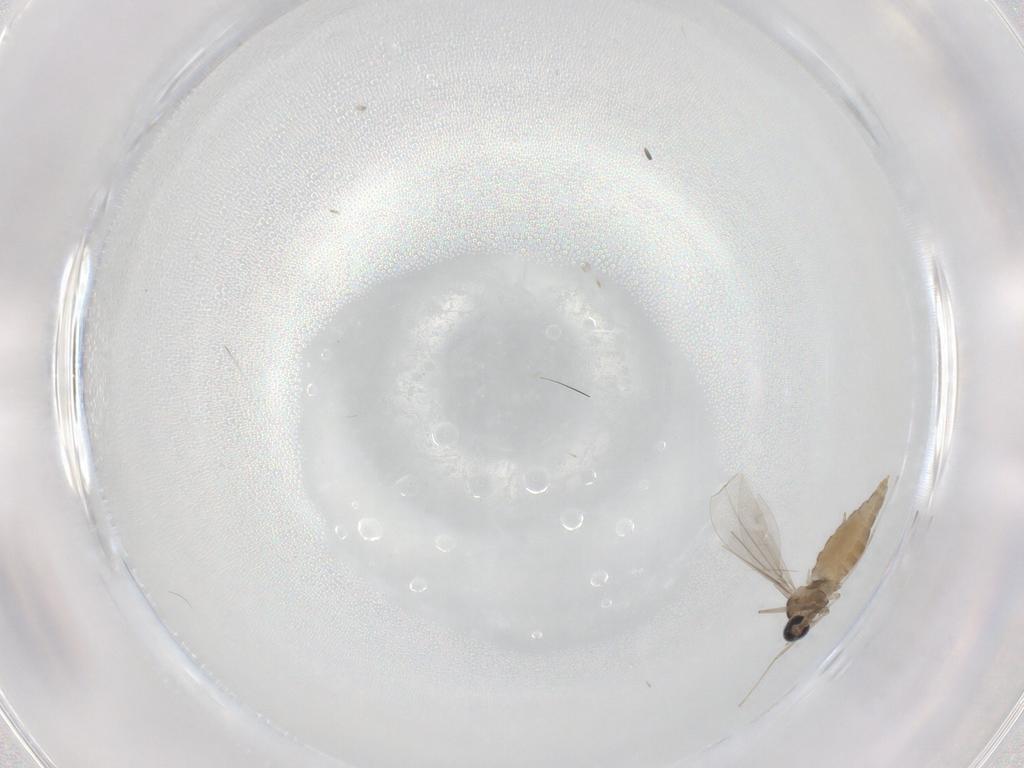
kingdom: Animalia
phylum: Arthropoda
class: Insecta
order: Diptera
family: Cecidomyiidae
